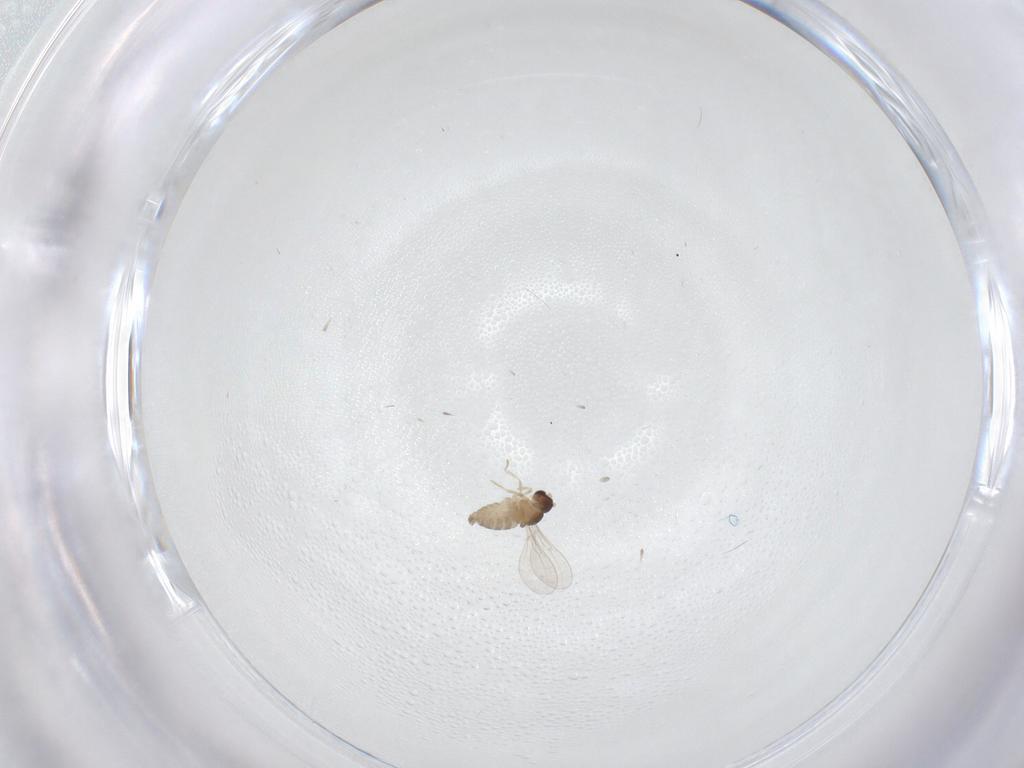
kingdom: Animalia
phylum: Arthropoda
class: Insecta
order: Diptera
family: Cecidomyiidae
